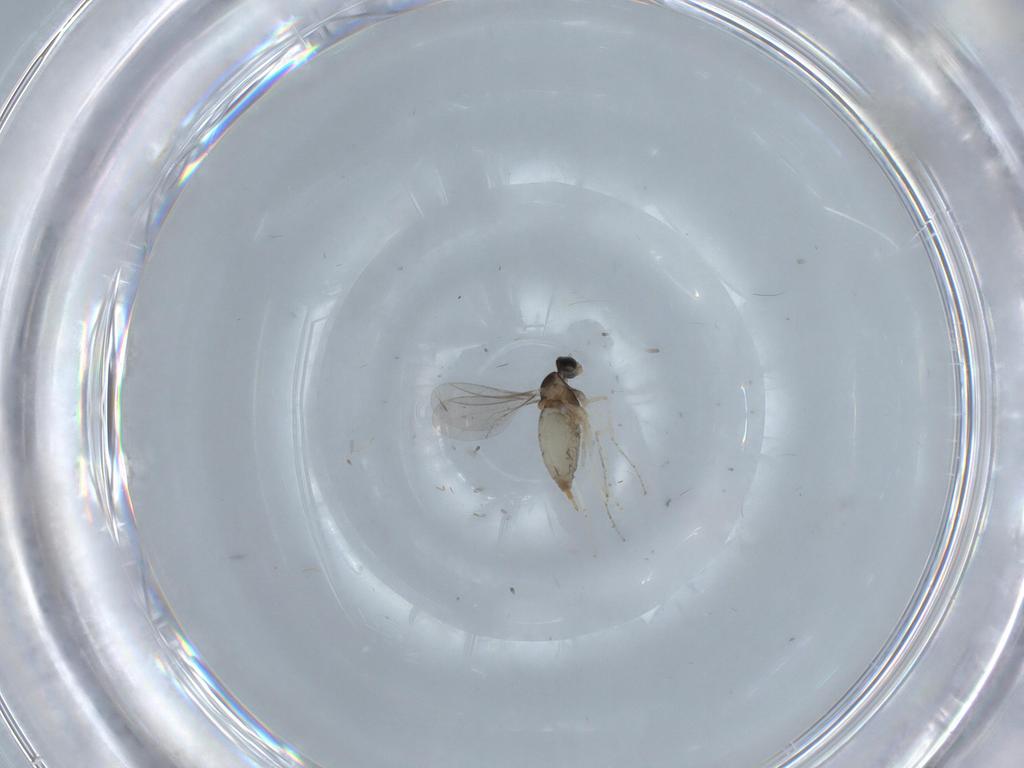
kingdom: Animalia
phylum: Arthropoda
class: Insecta
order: Diptera
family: Cecidomyiidae
